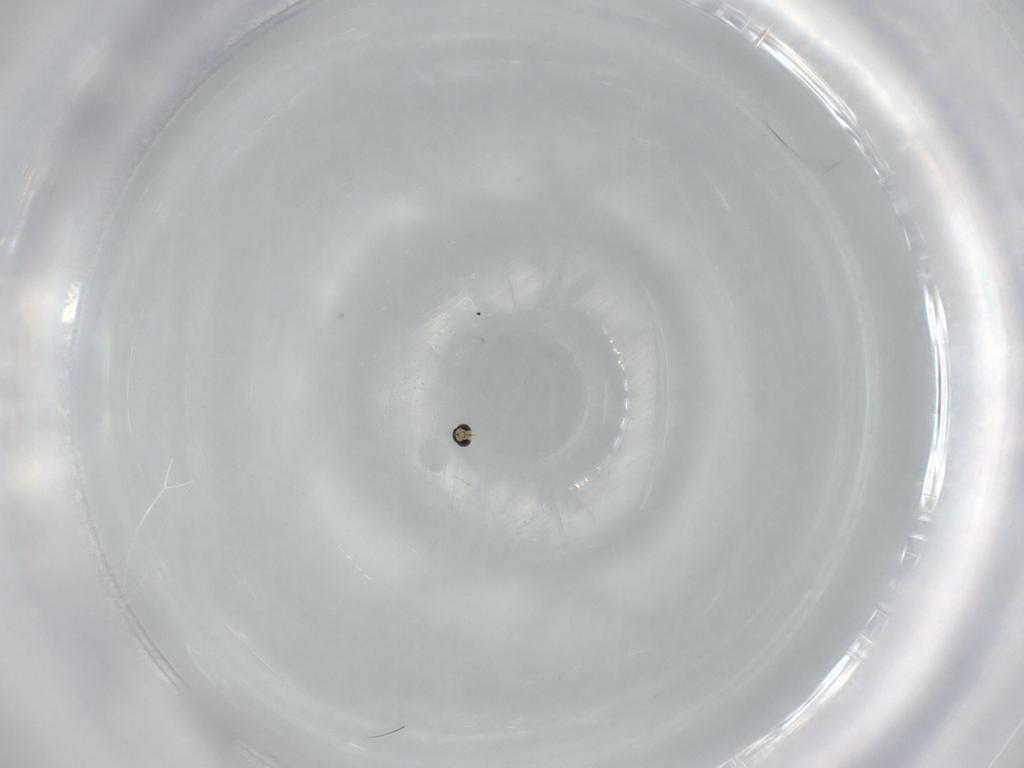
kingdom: Animalia
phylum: Arthropoda
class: Insecta
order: Diptera
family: Cecidomyiidae
